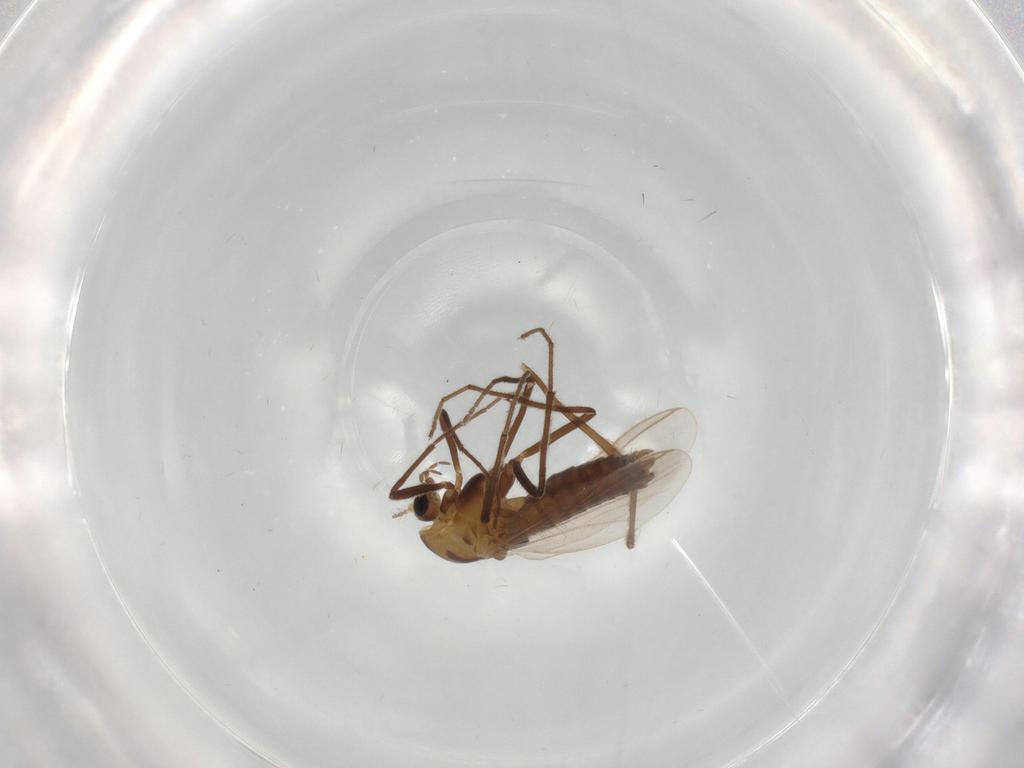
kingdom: Animalia
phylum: Arthropoda
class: Insecta
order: Diptera
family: Chironomidae
